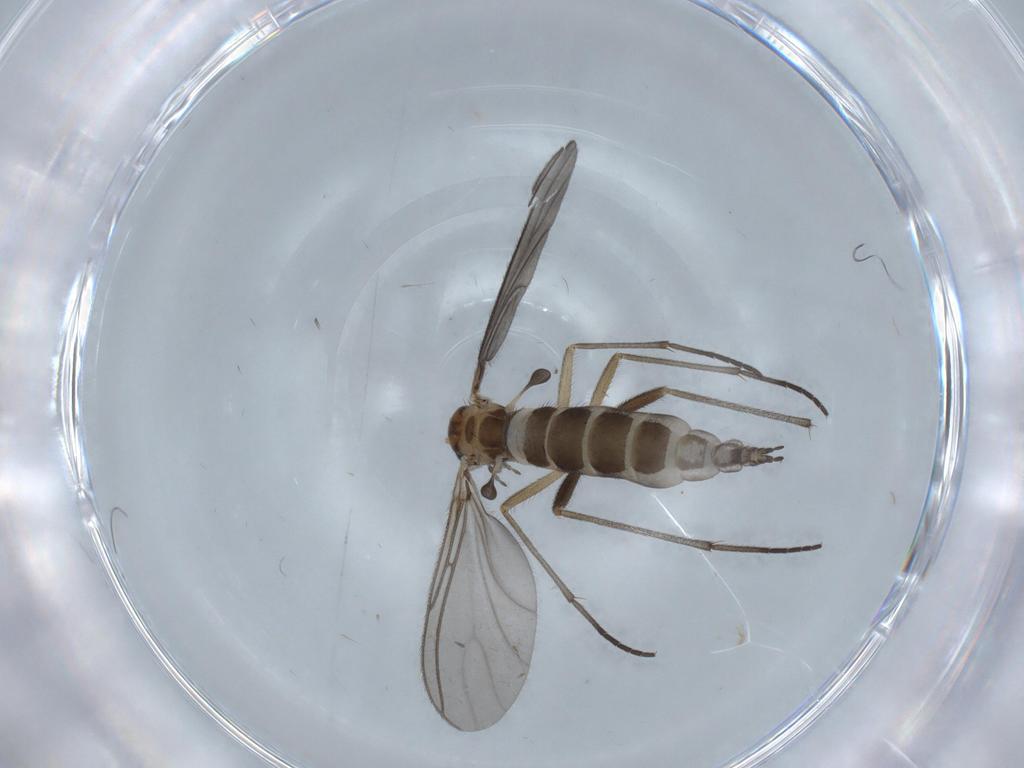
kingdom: Animalia
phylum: Arthropoda
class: Insecta
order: Diptera
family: Sciaridae
